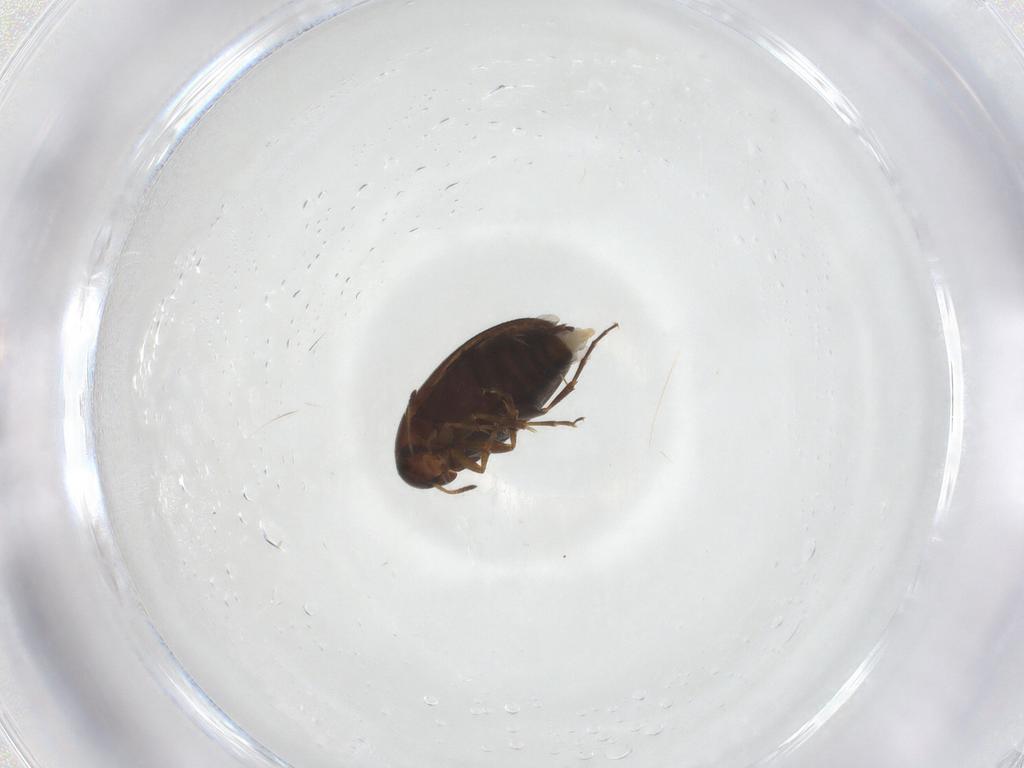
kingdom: Animalia
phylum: Arthropoda
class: Insecta
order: Coleoptera
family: Scraptiidae
